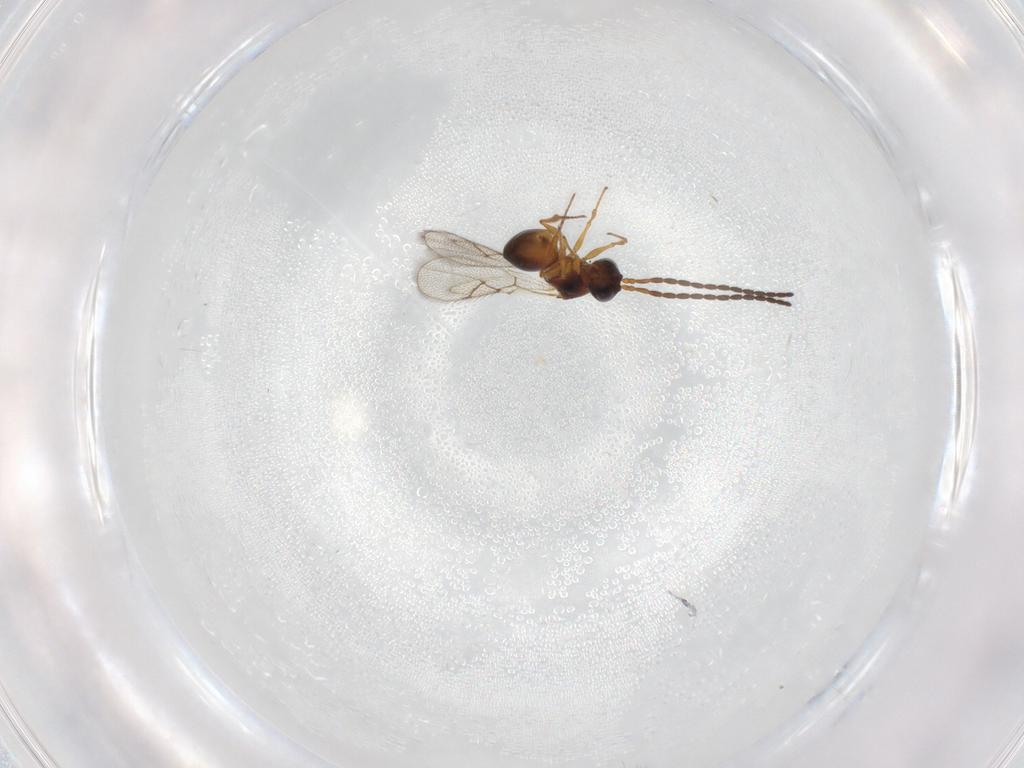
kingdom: Animalia
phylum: Arthropoda
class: Insecta
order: Hymenoptera
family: Figitidae
